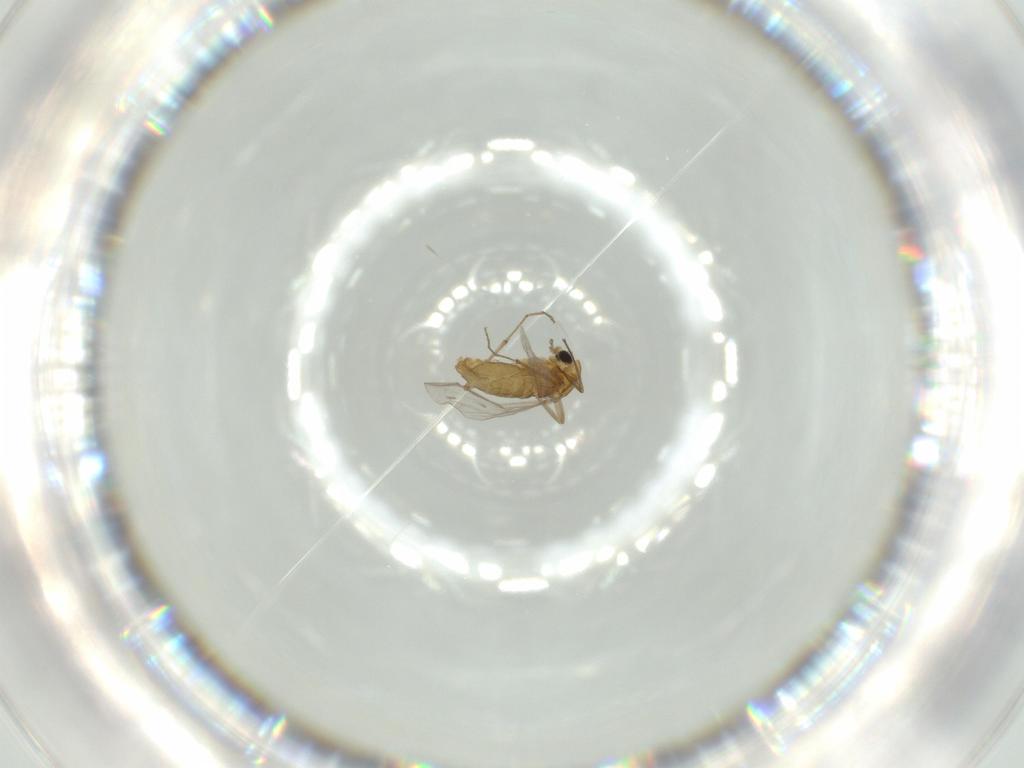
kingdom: Animalia
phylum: Arthropoda
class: Insecta
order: Diptera
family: Chironomidae
